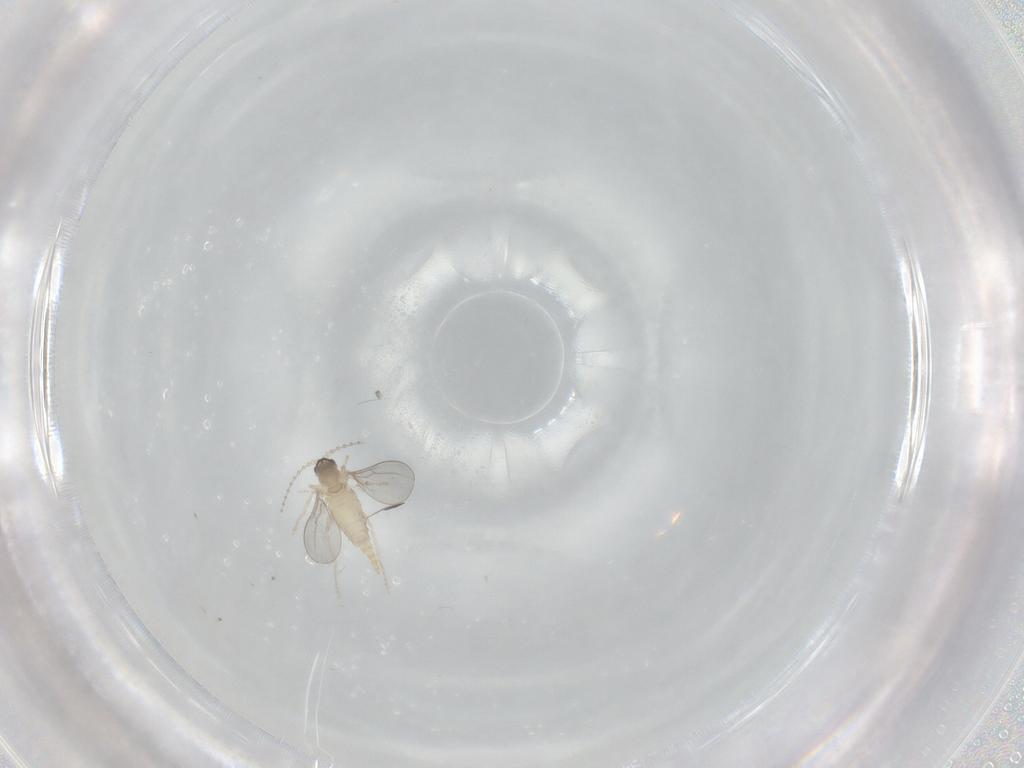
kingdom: Animalia
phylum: Arthropoda
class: Insecta
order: Diptera
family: Cecidomyiidae
